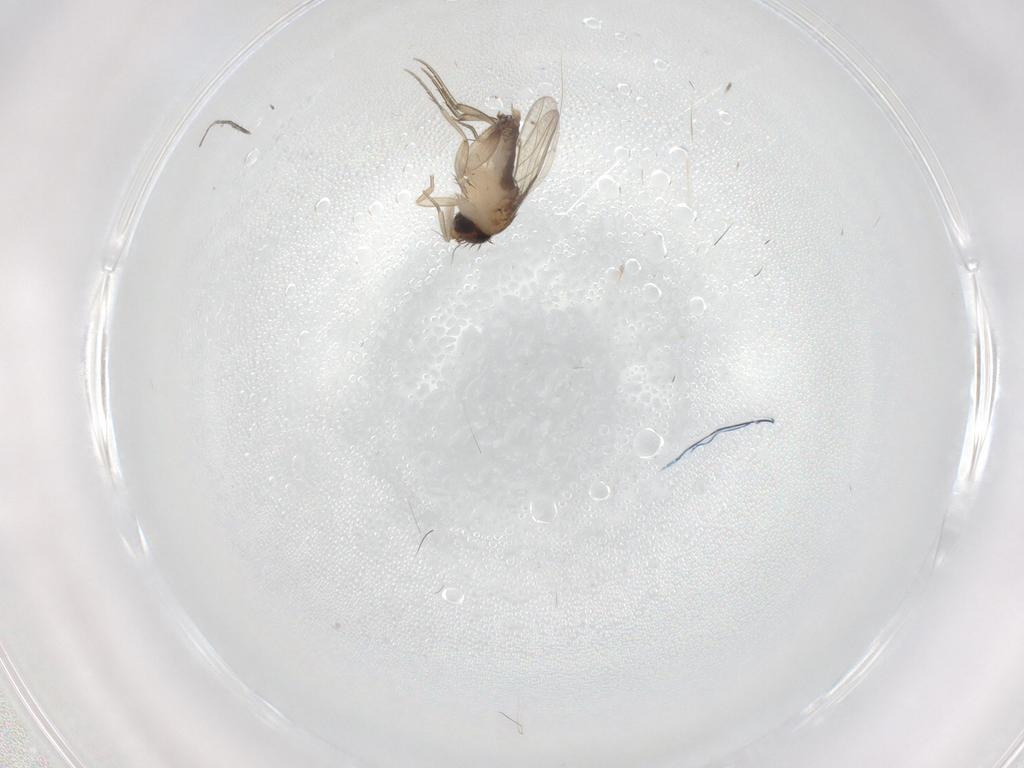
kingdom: Animalia
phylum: Arthropoda
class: Insecta
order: Diptera
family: Phoridae
